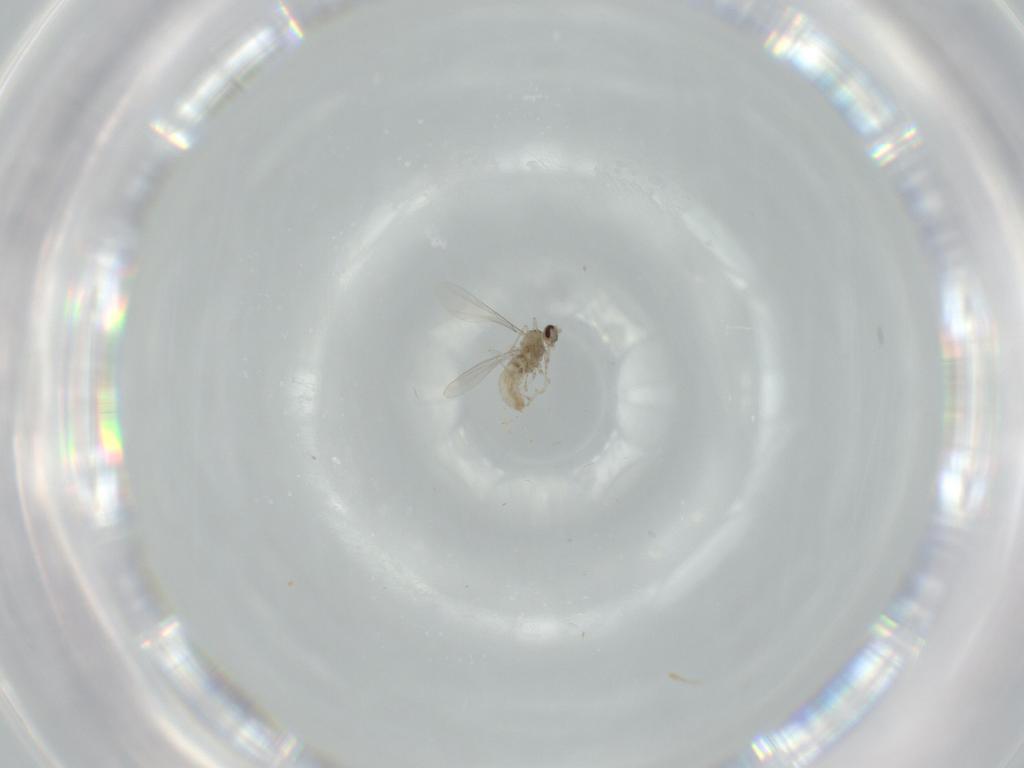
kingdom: Animalia
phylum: Arthropoda
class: Insecta
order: Diptera
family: Cecidomyiidae
